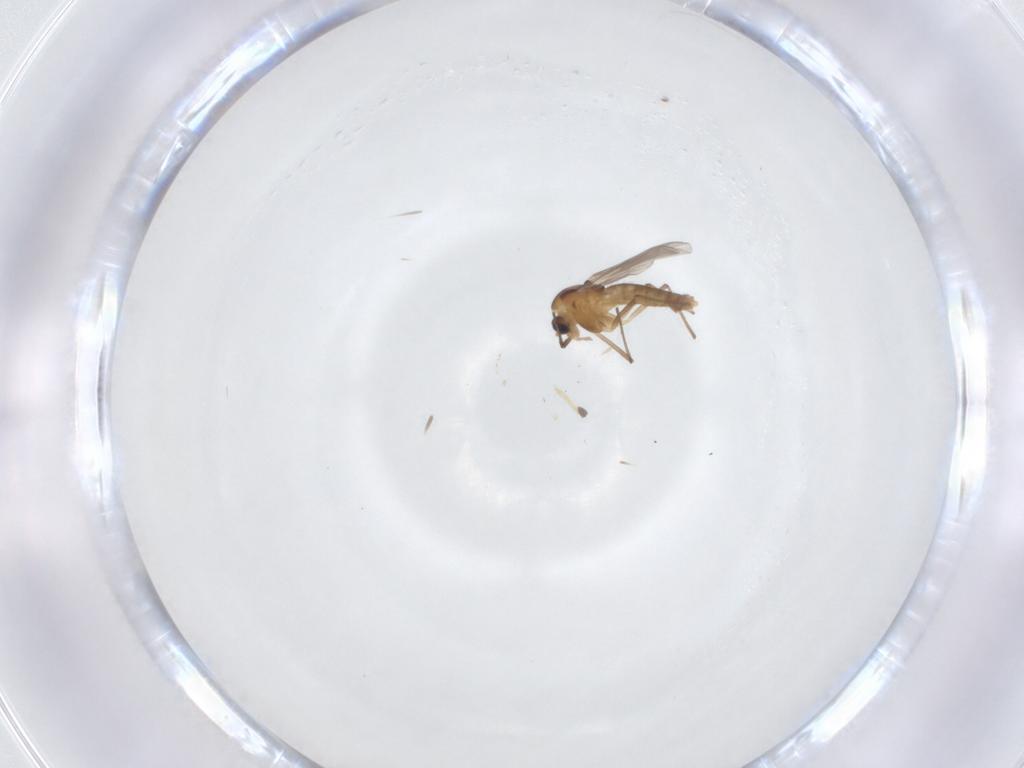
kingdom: Animalia
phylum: Arthropoda
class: Insecta
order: Diptera
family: Chironomidae
